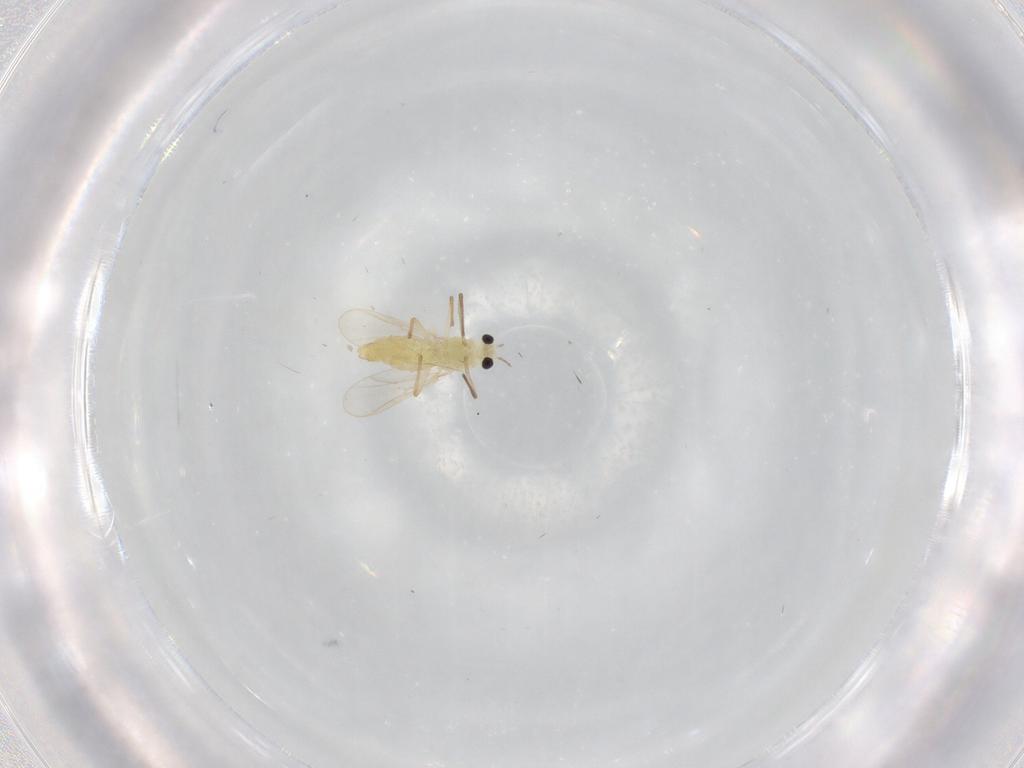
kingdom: Animalia
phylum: Arthropoda
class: Insecta
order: Diptera
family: Chironomidae
